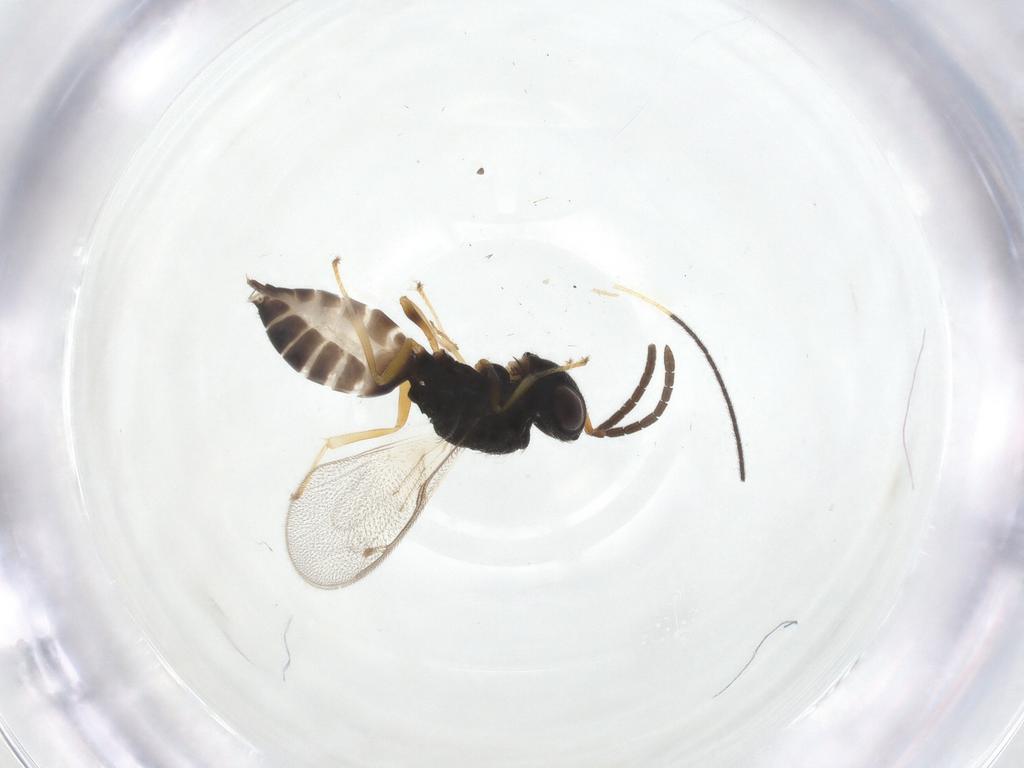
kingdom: Animalia
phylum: Arthropoda
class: Insecta
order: Hymenoptera
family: Pteromalidae
